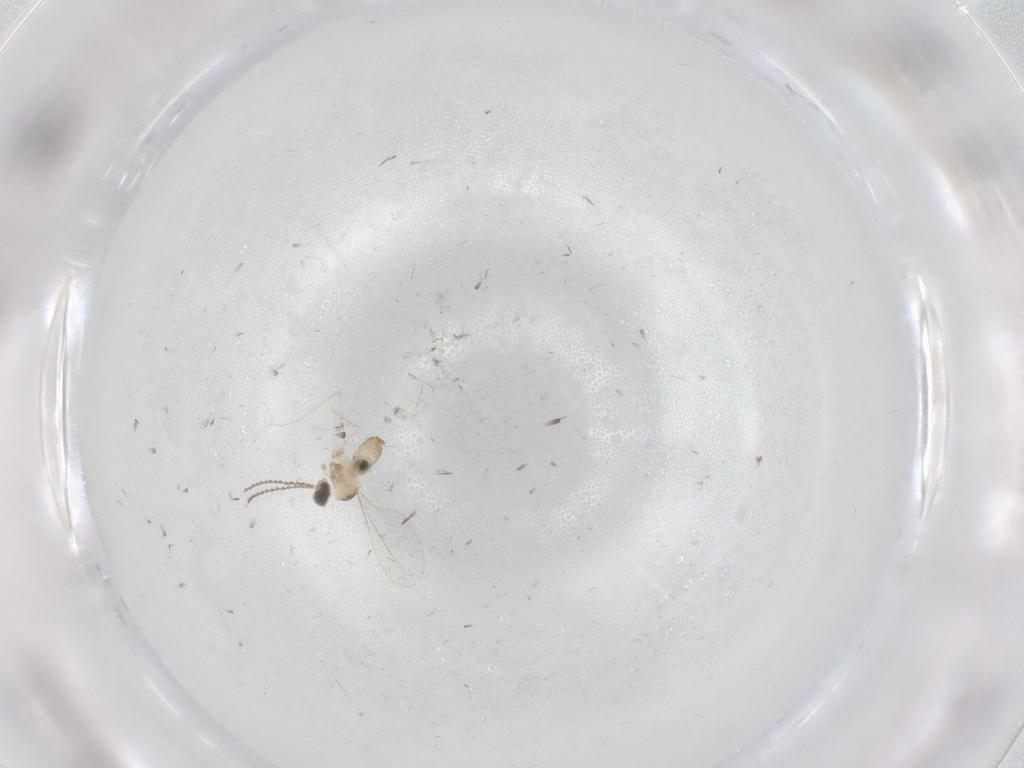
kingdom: Animalia
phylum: Arthropoda
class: Insecta
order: Diptera
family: Cecidomyiidae
